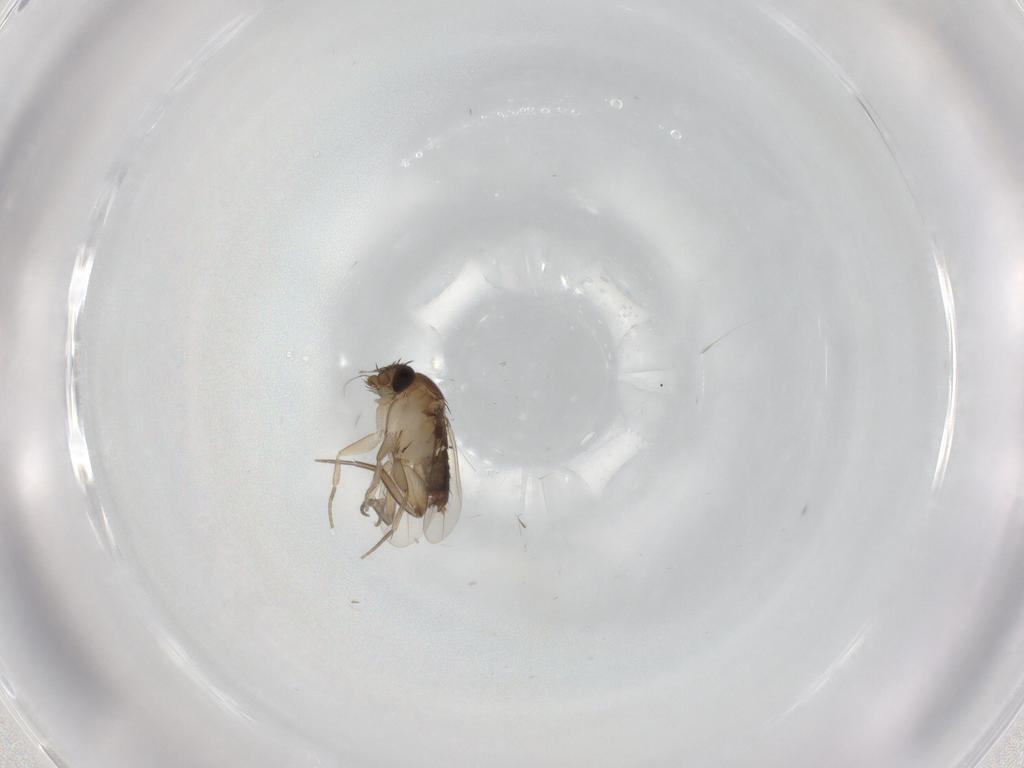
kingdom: Animalia
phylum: Arthropoda
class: Insecta
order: Diptera
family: Phoridae
